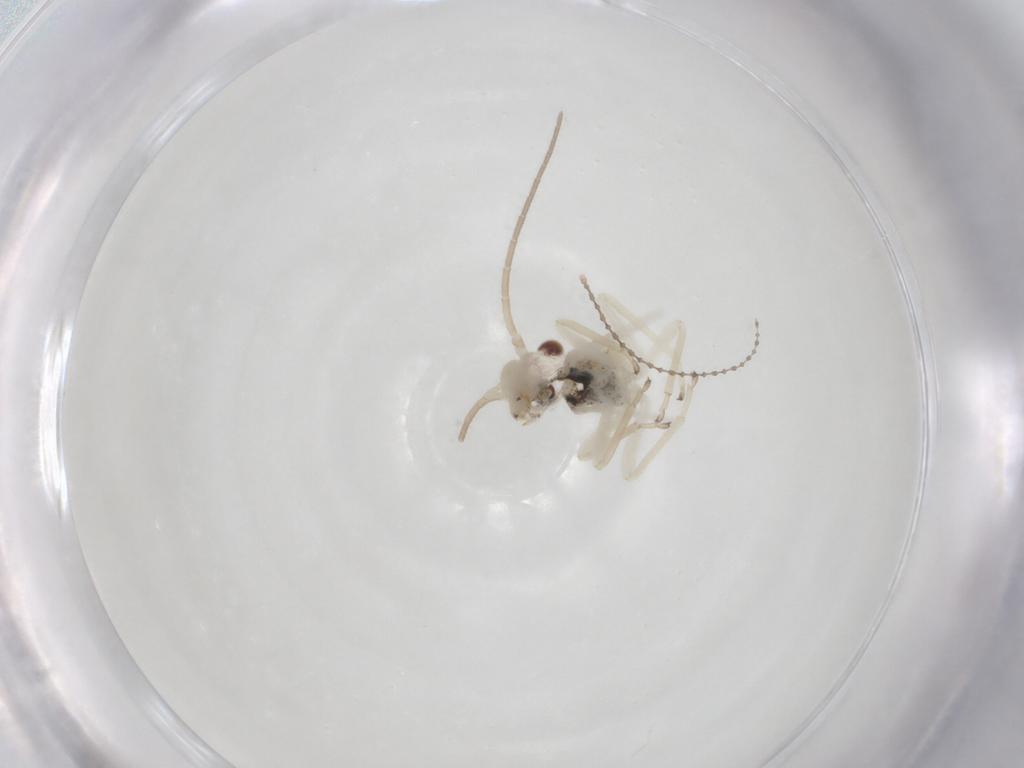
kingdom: Animalia
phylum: Arthropoda
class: Insecta
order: Psocodea
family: Caeciliusidae
